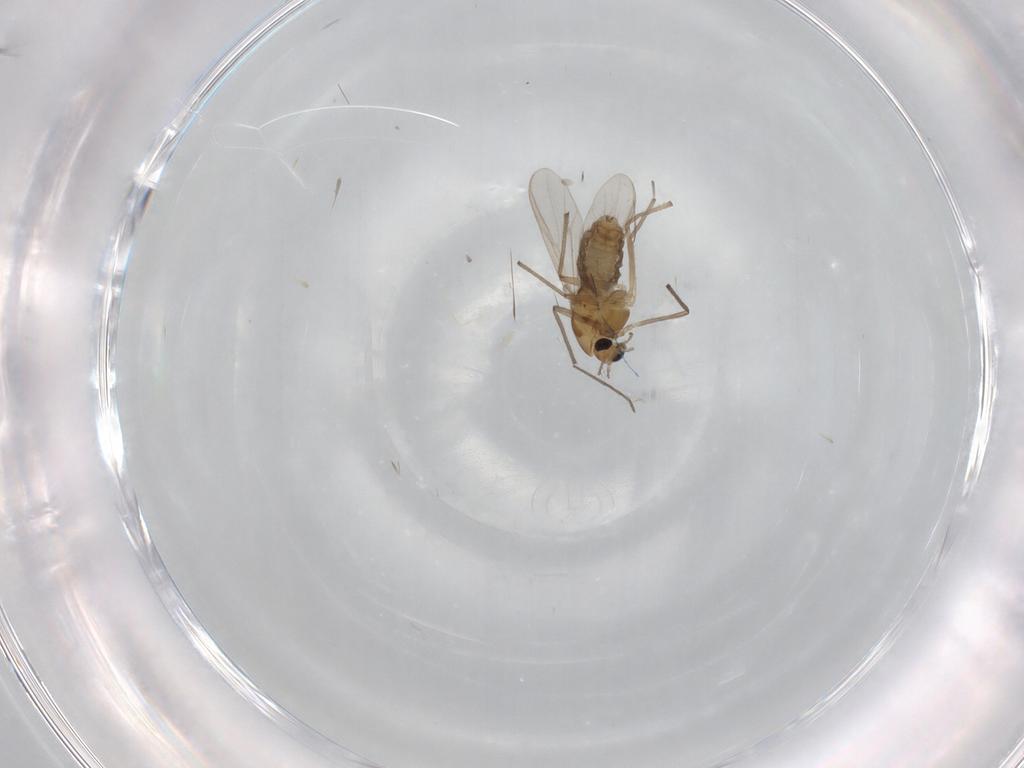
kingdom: Animalia
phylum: Arthropoda
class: Insecta
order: Diptera
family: Chironomidae
